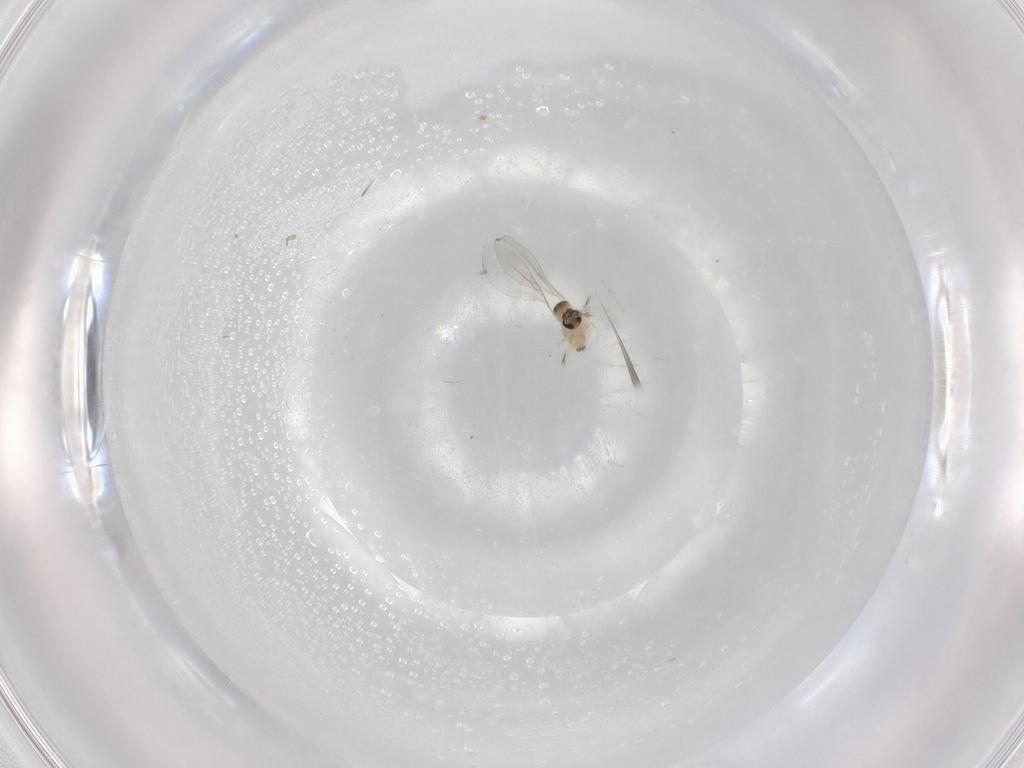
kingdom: Animalia
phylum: Arthropoda
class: Insecta
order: Diptera
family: Cecidomyiidae
